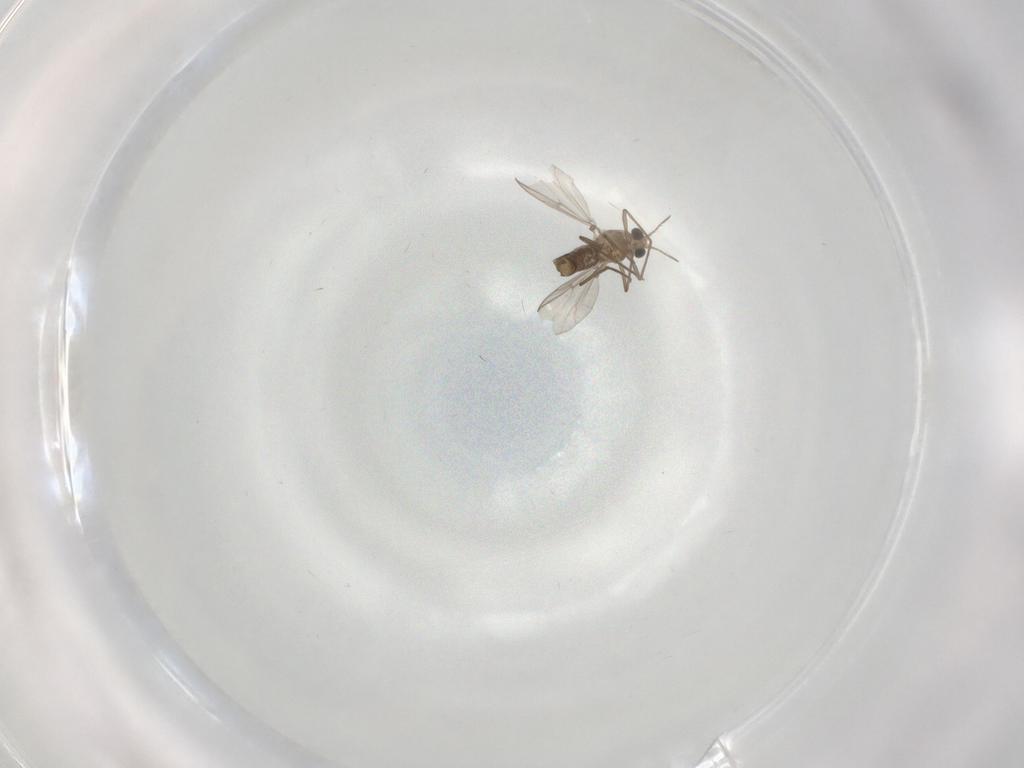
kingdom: Animalia
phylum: Arthropoda
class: Insecta
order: Diptera
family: Chironomidae
